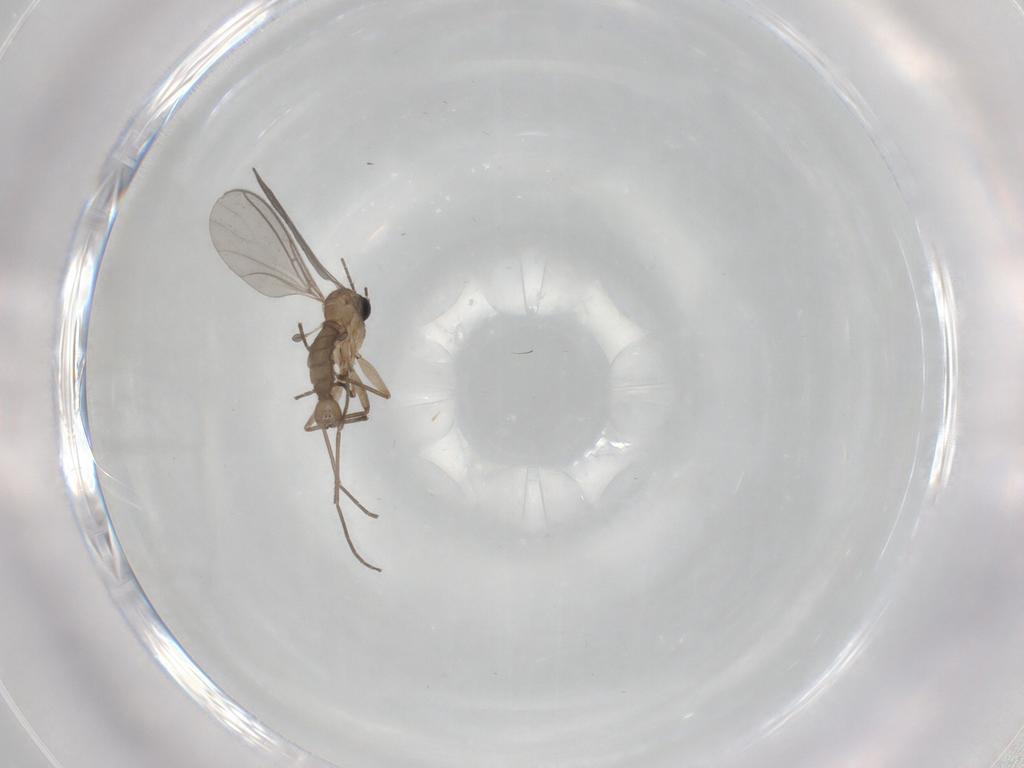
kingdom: Animalia
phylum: Arthropoda
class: Insecta
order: Diptera
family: Sciaridae
